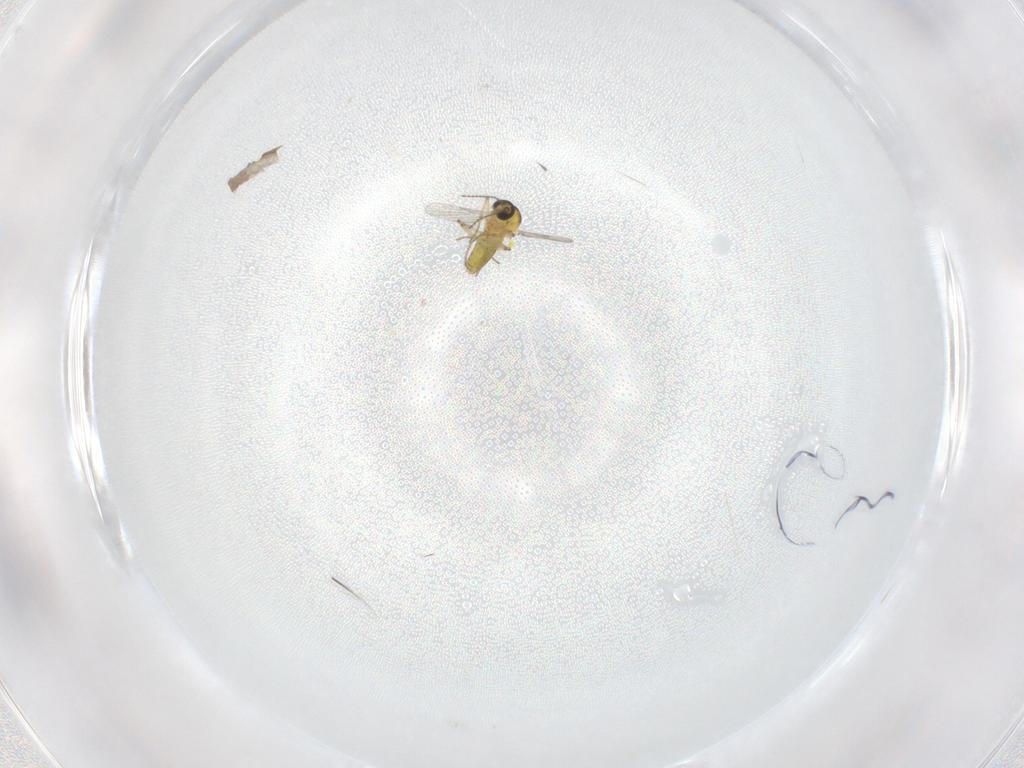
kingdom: Animalia
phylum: Arthropoda
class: Insecta
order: Diptera
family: Ceratopogonidae
